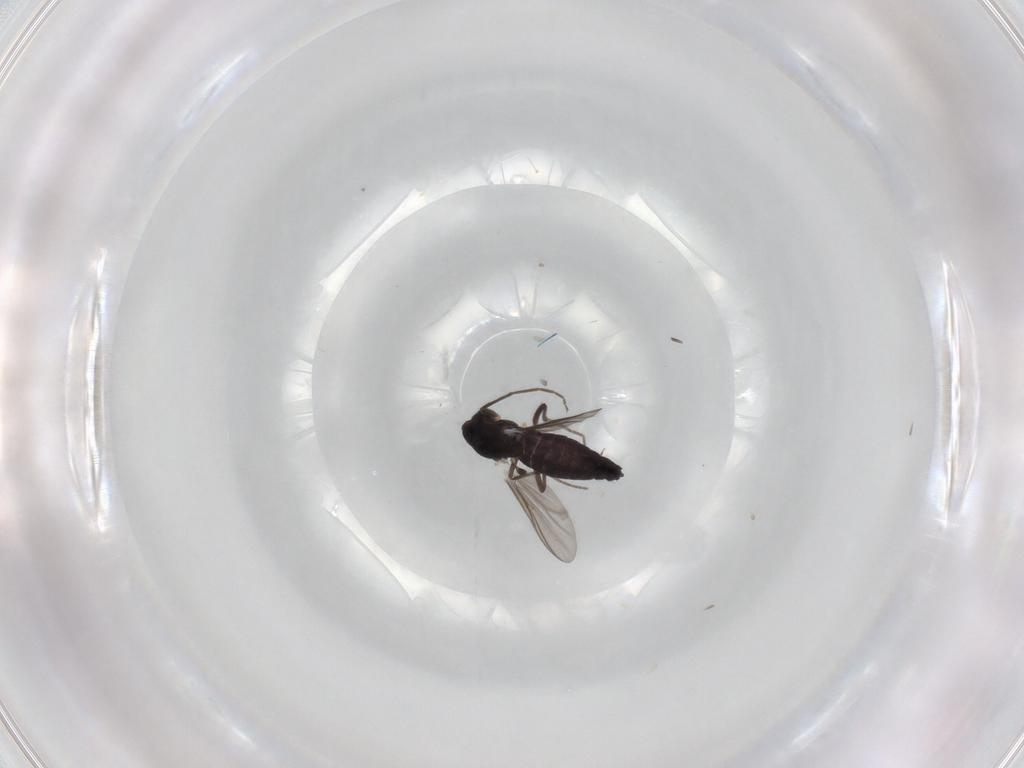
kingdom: Animalia
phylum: Arthropoda
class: Insecta
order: Diptera
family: Chironomidae
